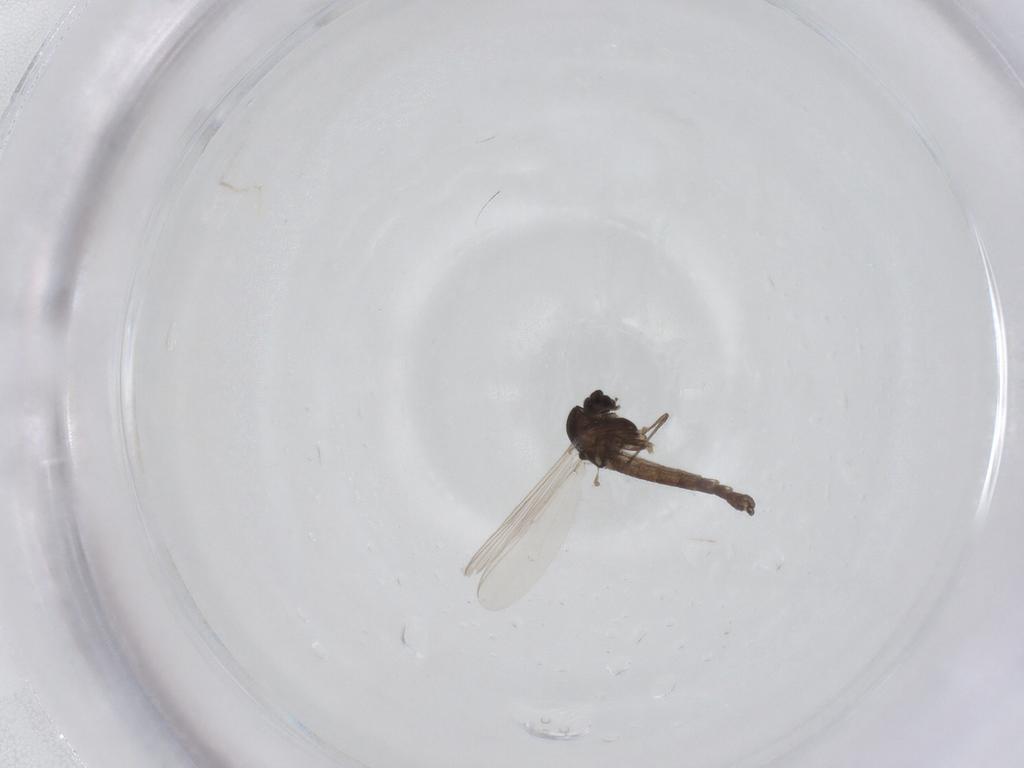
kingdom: Animalia
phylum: Arthropoda
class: Insecta
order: Diptera
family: Chironomidae
